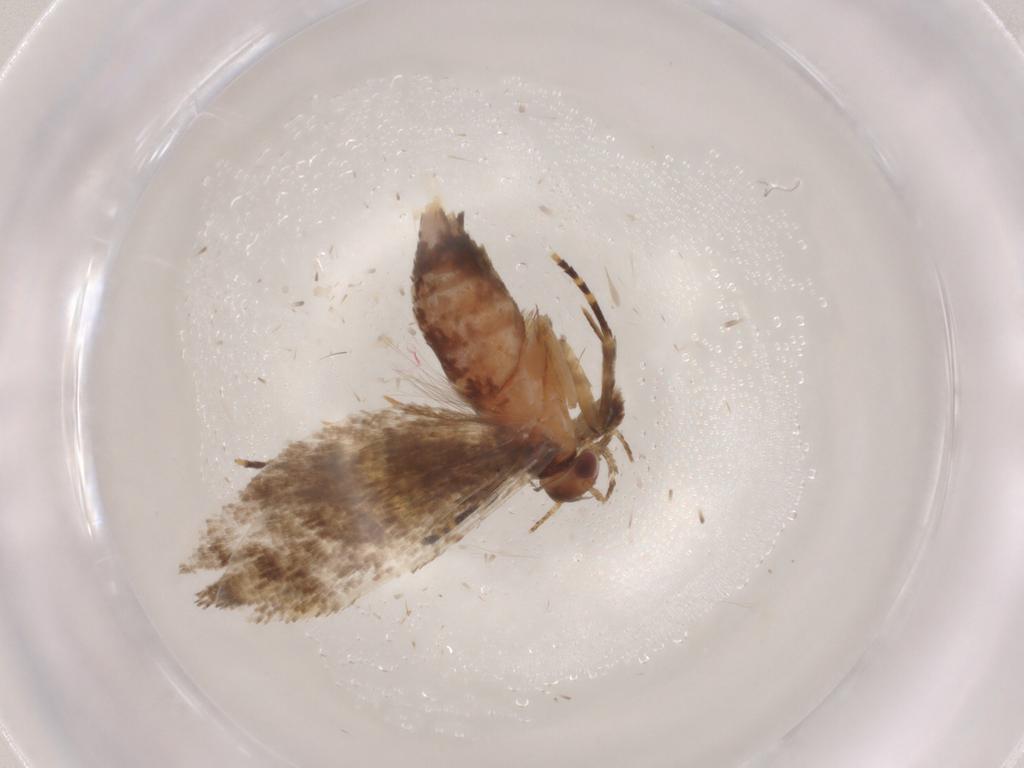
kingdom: Animalia
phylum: Arthropoda
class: Insecta
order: Lepidoptera
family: Oecophoridae
